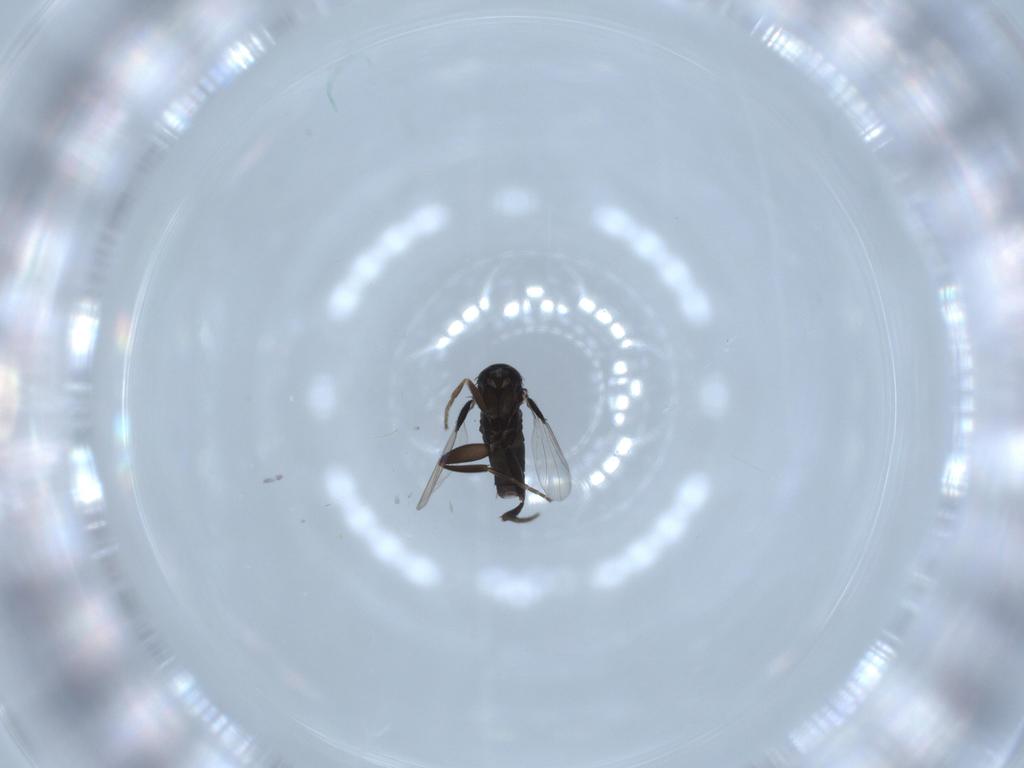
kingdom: Animalia
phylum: Arthropoda
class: Insecta
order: Diptera
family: Phoridae
